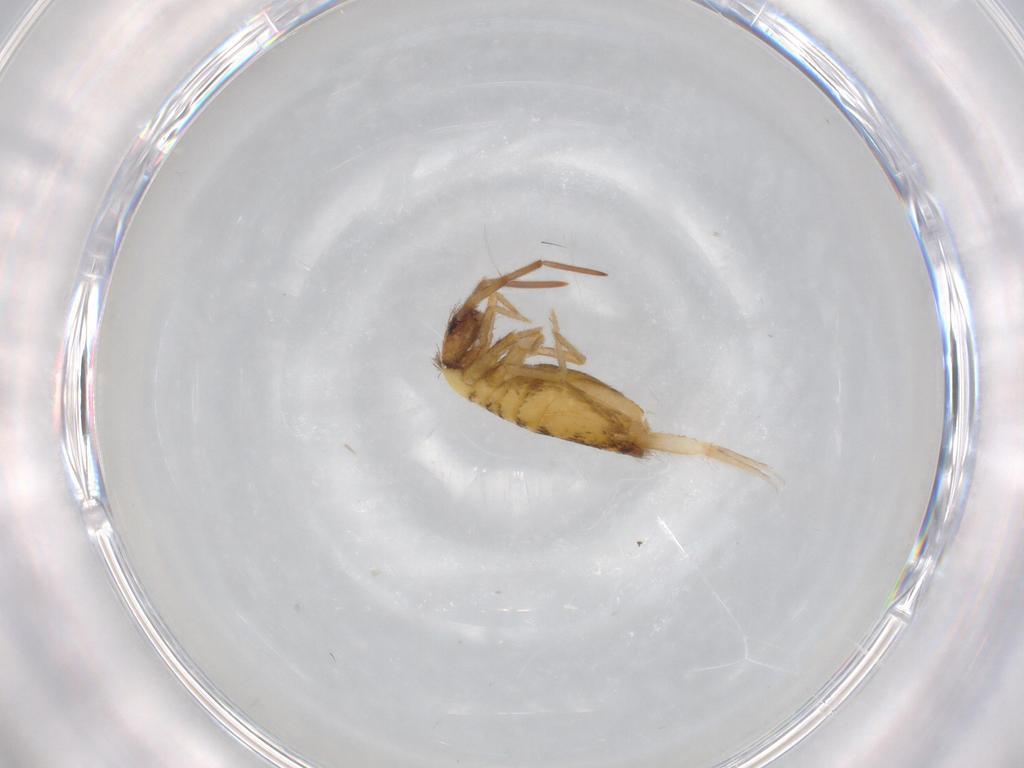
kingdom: Animalia
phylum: Arthropoda
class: Collembola
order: Entomobryomorpha
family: Entomobryidae
